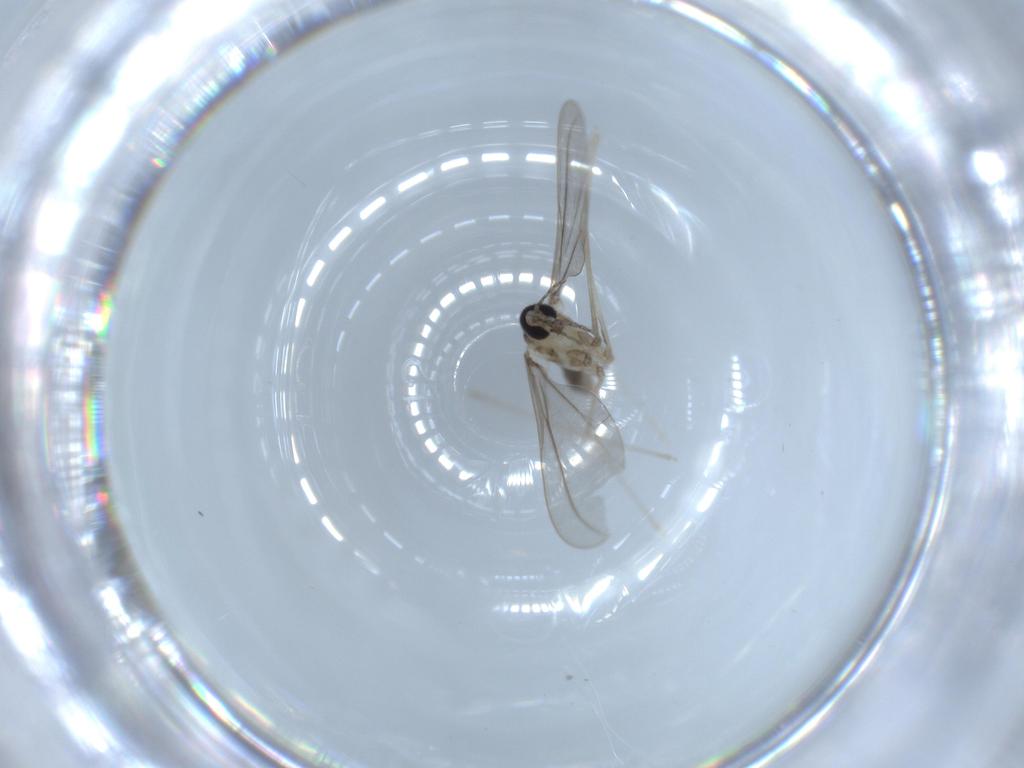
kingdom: Animalia
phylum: Arthropoda
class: Insecta
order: Diptera
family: Cecidomyiidae
